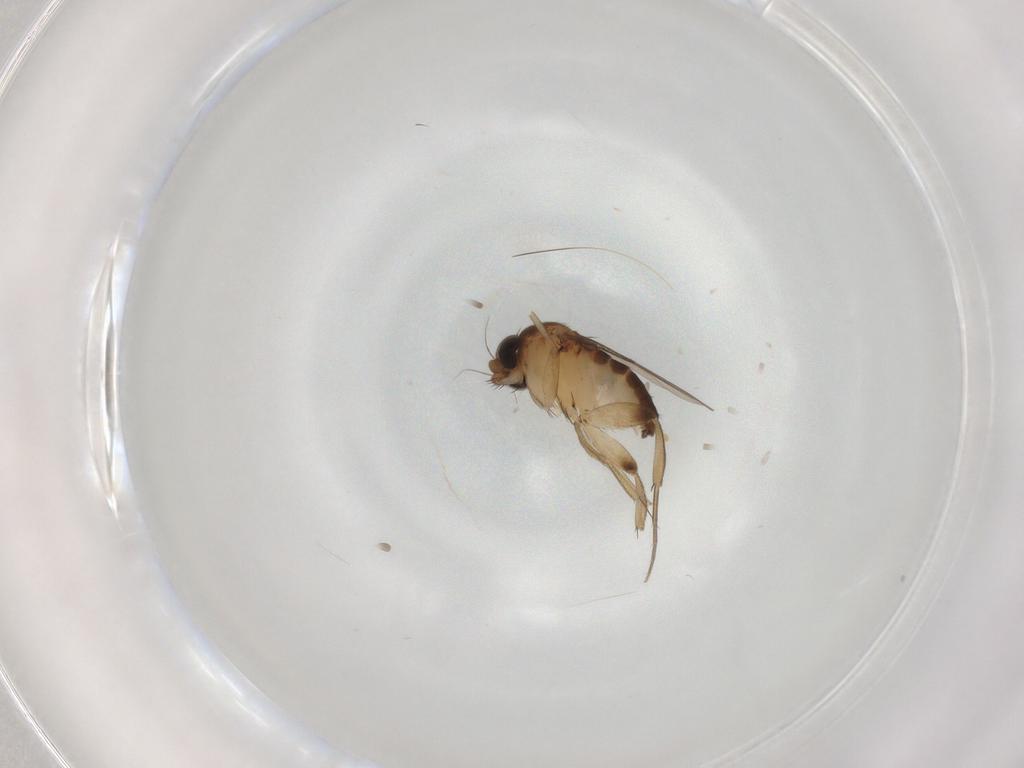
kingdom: Animalia
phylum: Arthropoda
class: Insecta
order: Diptera
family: Phoridae
